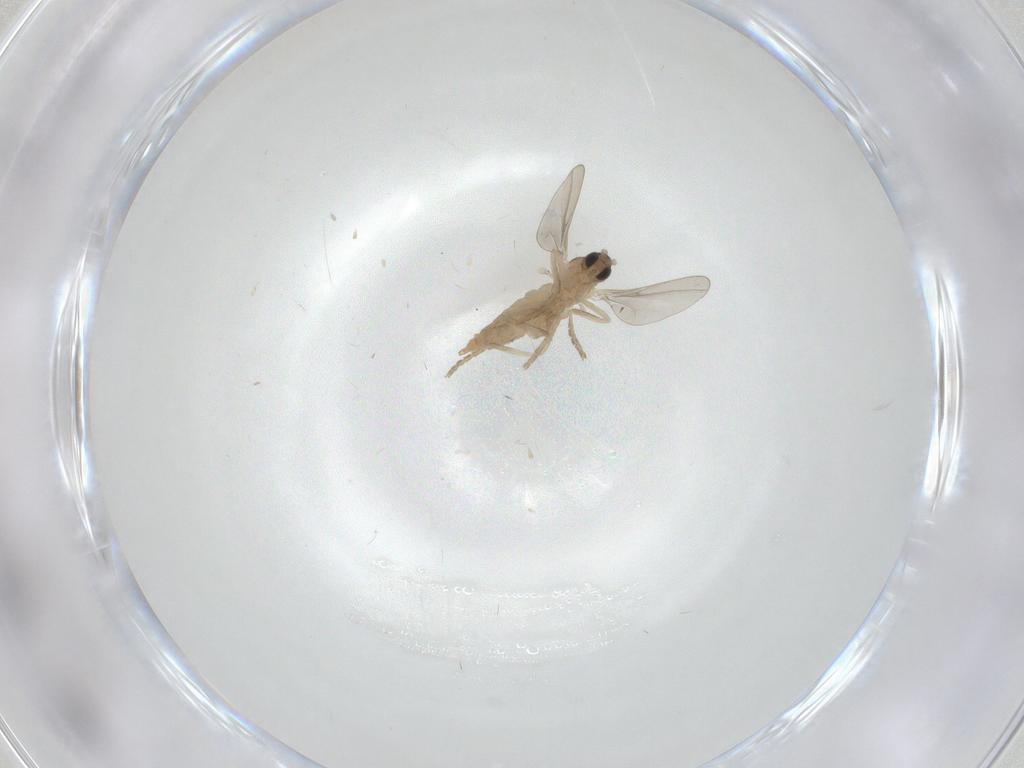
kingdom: Animalia
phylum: Arthropoda
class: Insecta
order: Diptera
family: Cecidomyiidae
